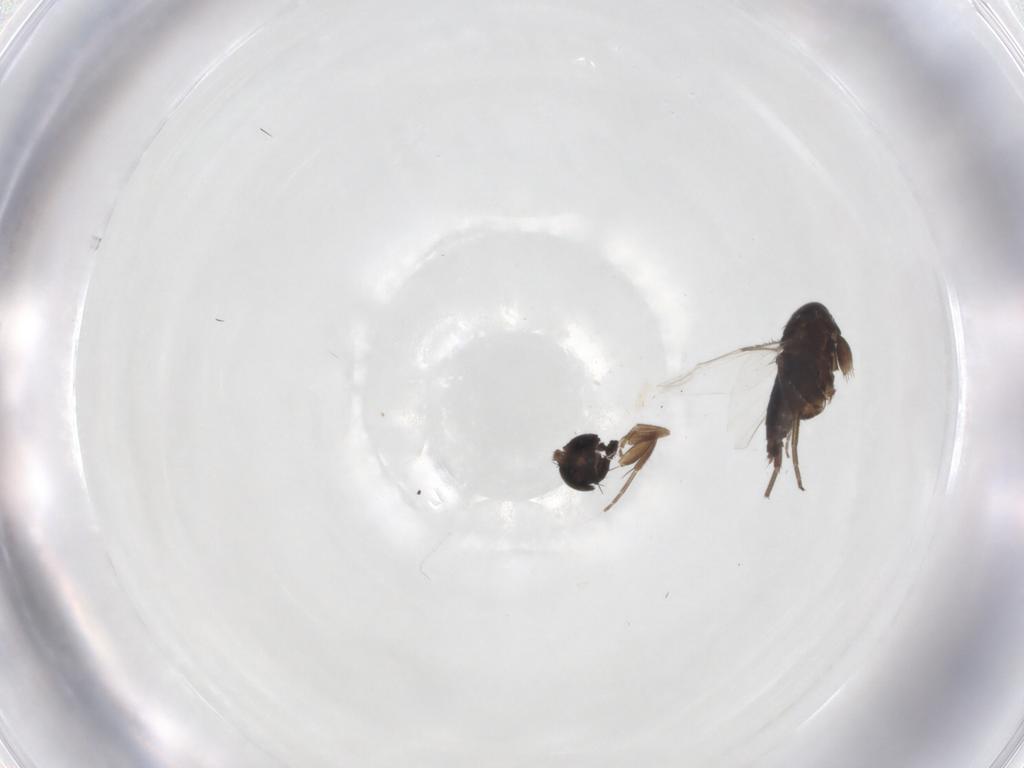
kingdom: Animalia
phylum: Arthropoda
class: Insecta
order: Diptera
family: Phoridae
